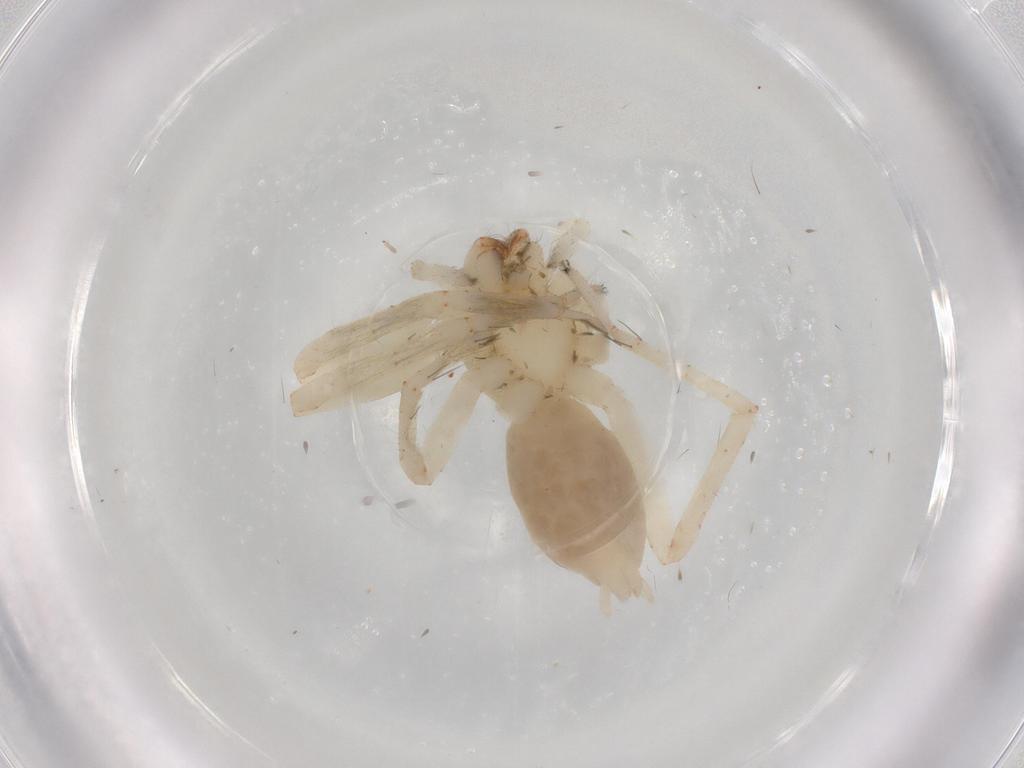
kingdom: Animalia
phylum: Arthropoda
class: Arachnida
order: Araneae
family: Anyphaenidae
